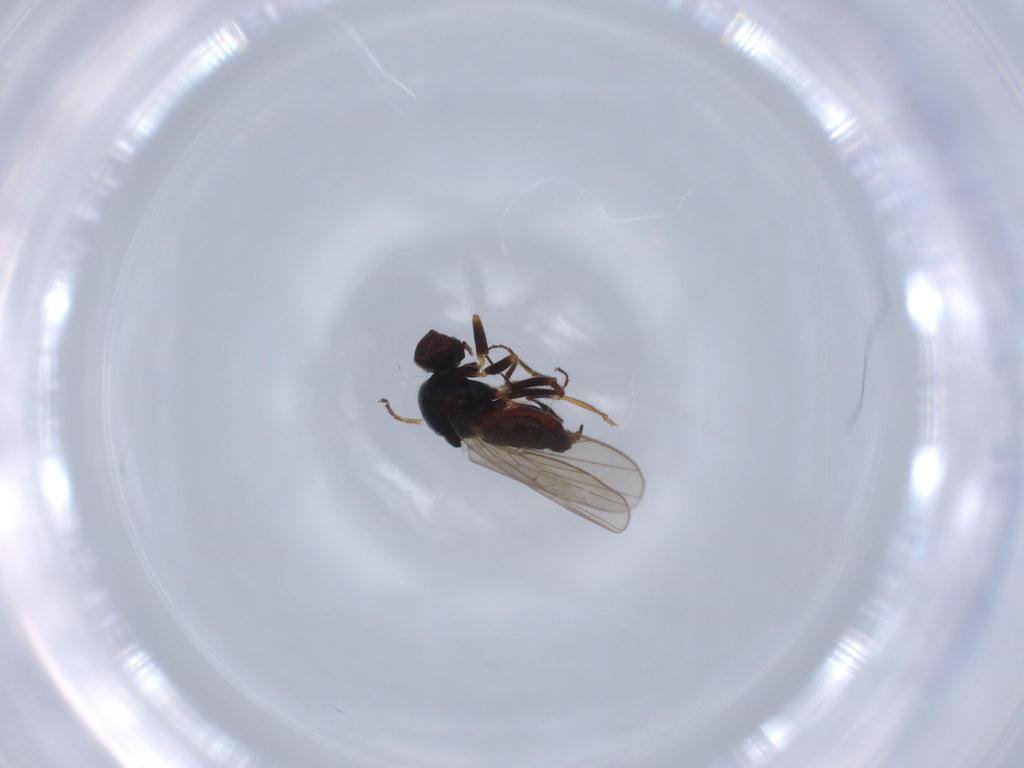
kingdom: Animalia
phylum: Arthropoda
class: Insecta
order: Diptera
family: Chloropidae
